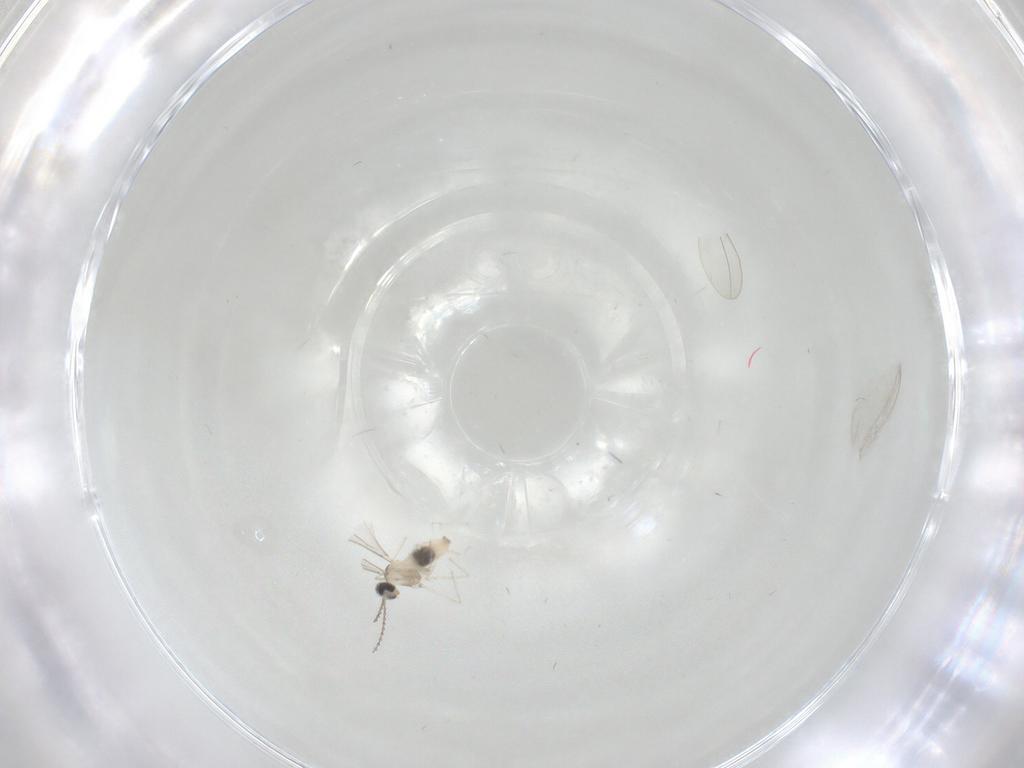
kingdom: Animalia
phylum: Arthropoda
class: Insecta
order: Diptera
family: Cecidomyiidae
